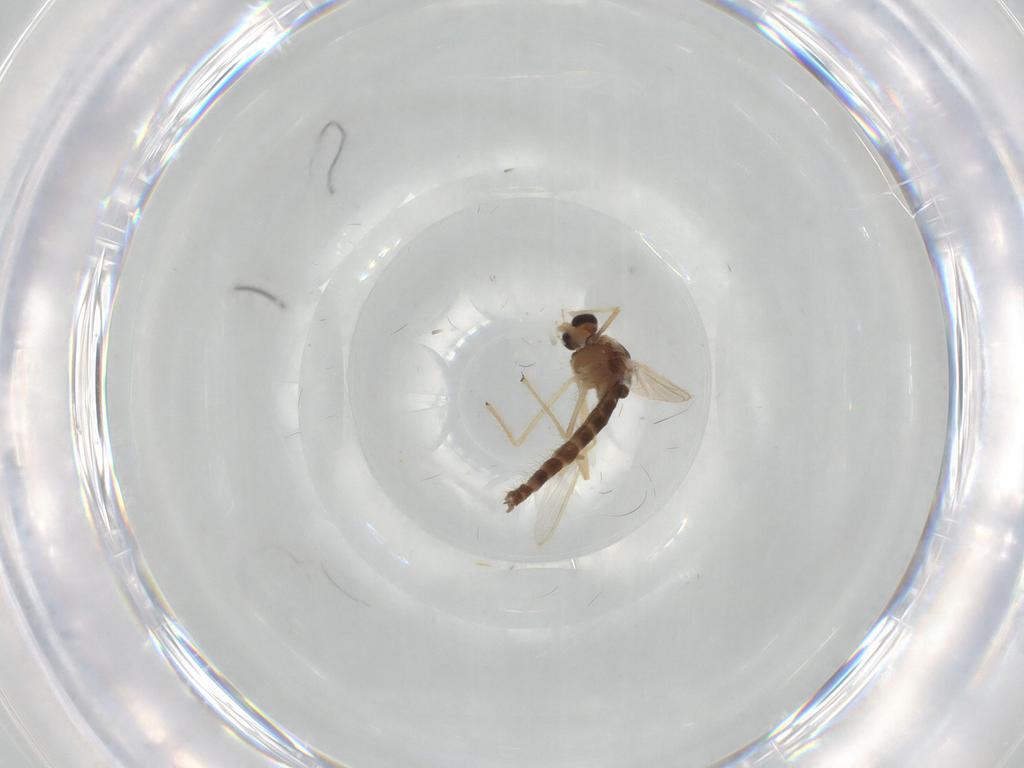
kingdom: Animalia
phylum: Arthropoda
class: Insecta
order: Diptera
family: Chironomidae
